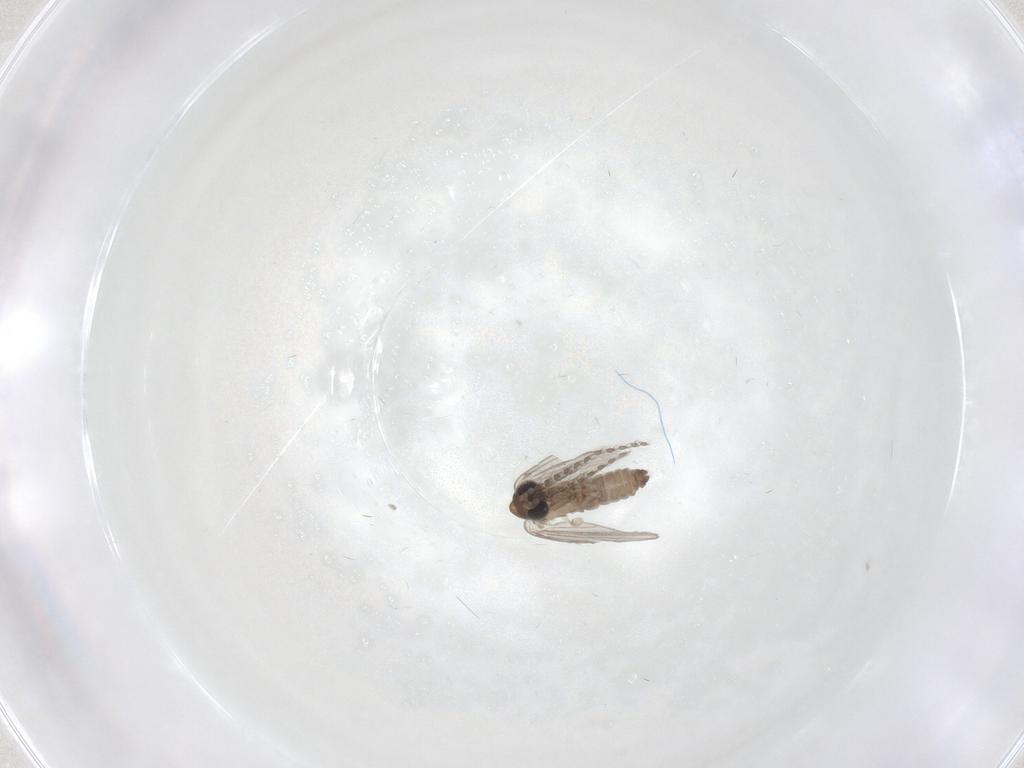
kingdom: Animalia
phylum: Arthropoda
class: Insecta
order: Diptera
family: Psychodidae
